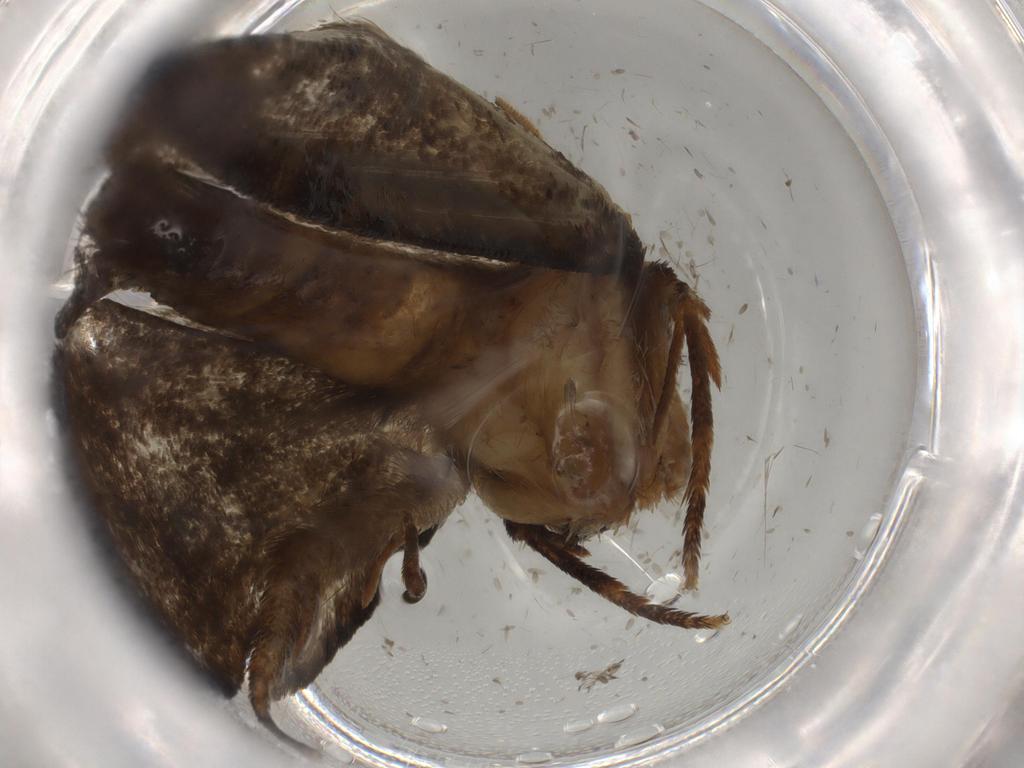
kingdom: Animalia
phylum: Arthropoda
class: Insecta
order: Lepidoptera
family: Tineidae
